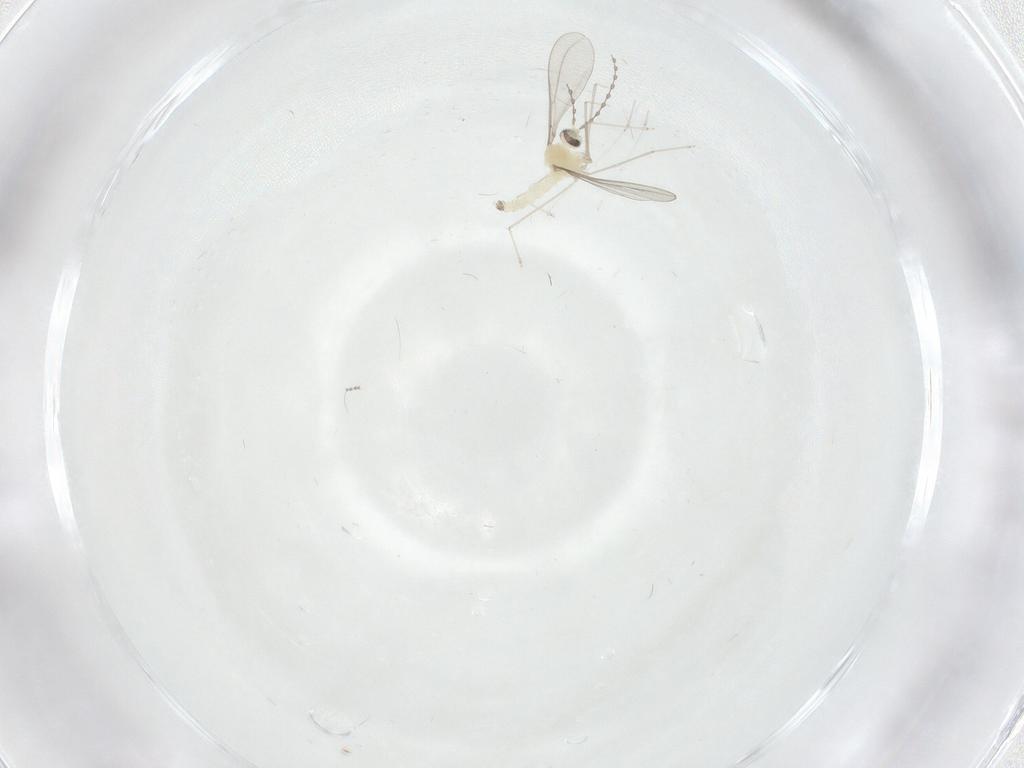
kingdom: Animalia
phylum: Arthropoda
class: Insecta
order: Diptera
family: Cecidomyiidae
